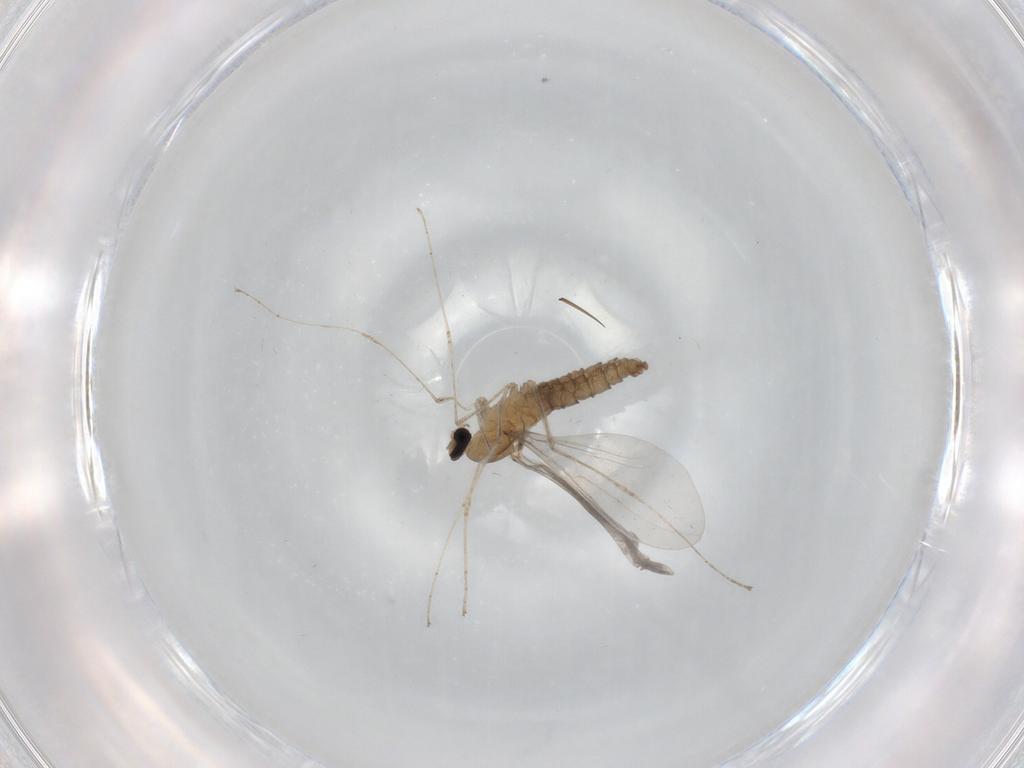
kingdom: Animalia
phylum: Arthropoda
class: Insecta
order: Diptera
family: Cecidomyiidae
